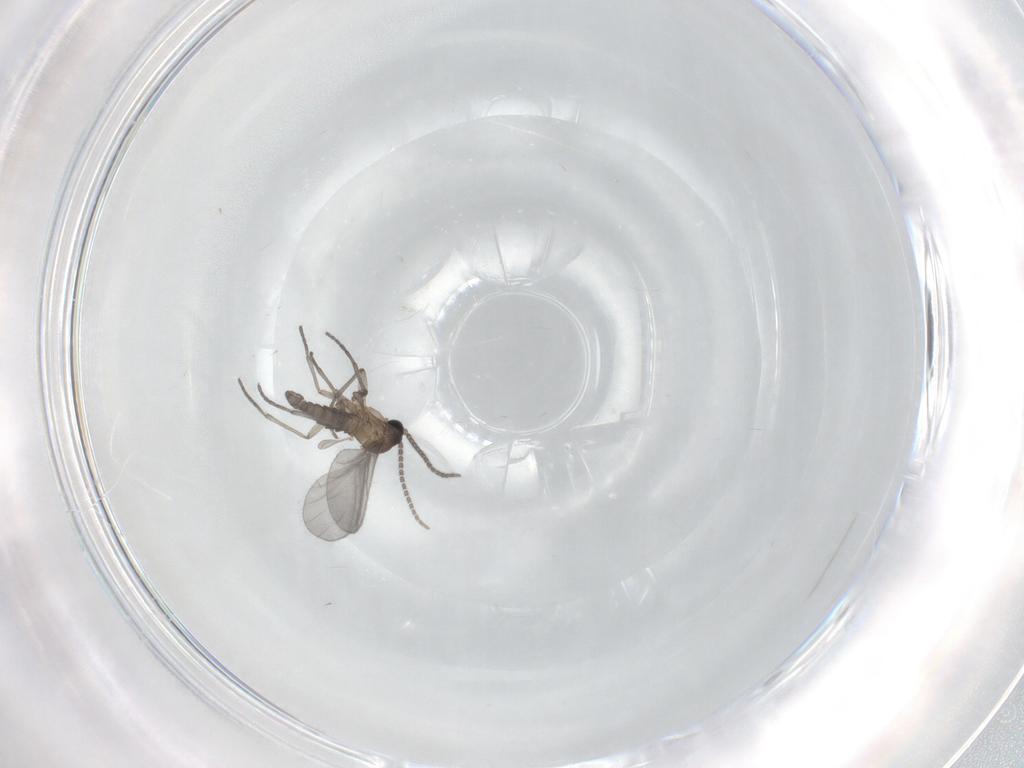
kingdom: Animalia
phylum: Arthropoda
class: Insecta
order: Diptera
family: Sciaridae
